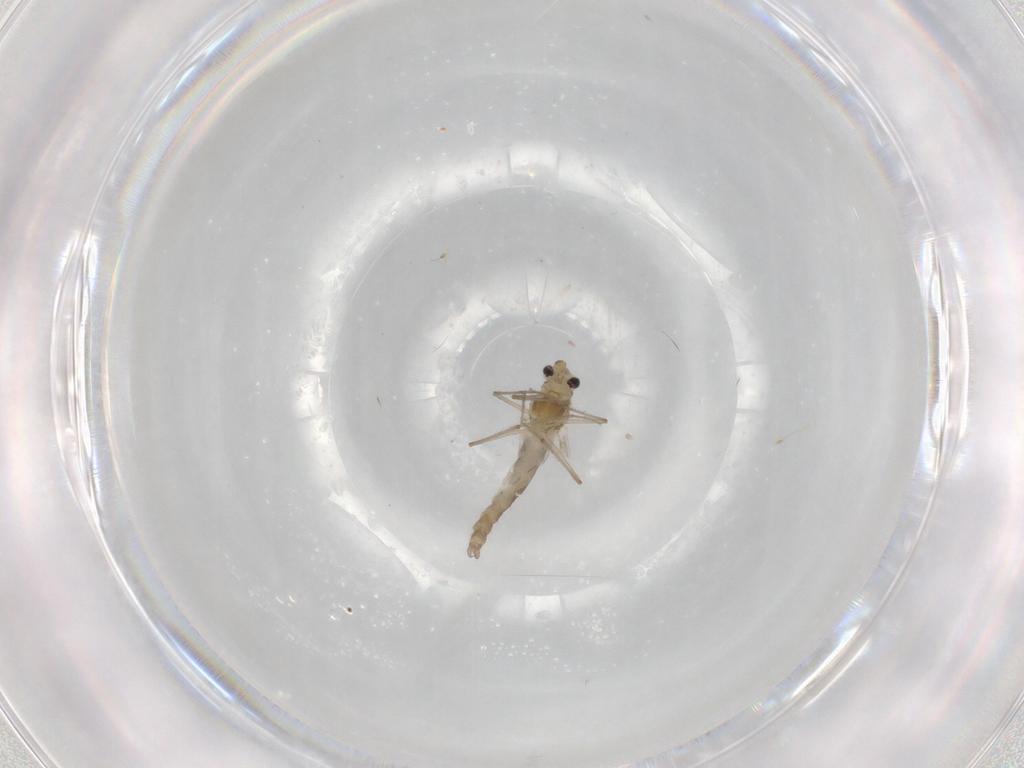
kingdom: Animalia
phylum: Arthropoda
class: Insecta
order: Diptera
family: Chironomidae
